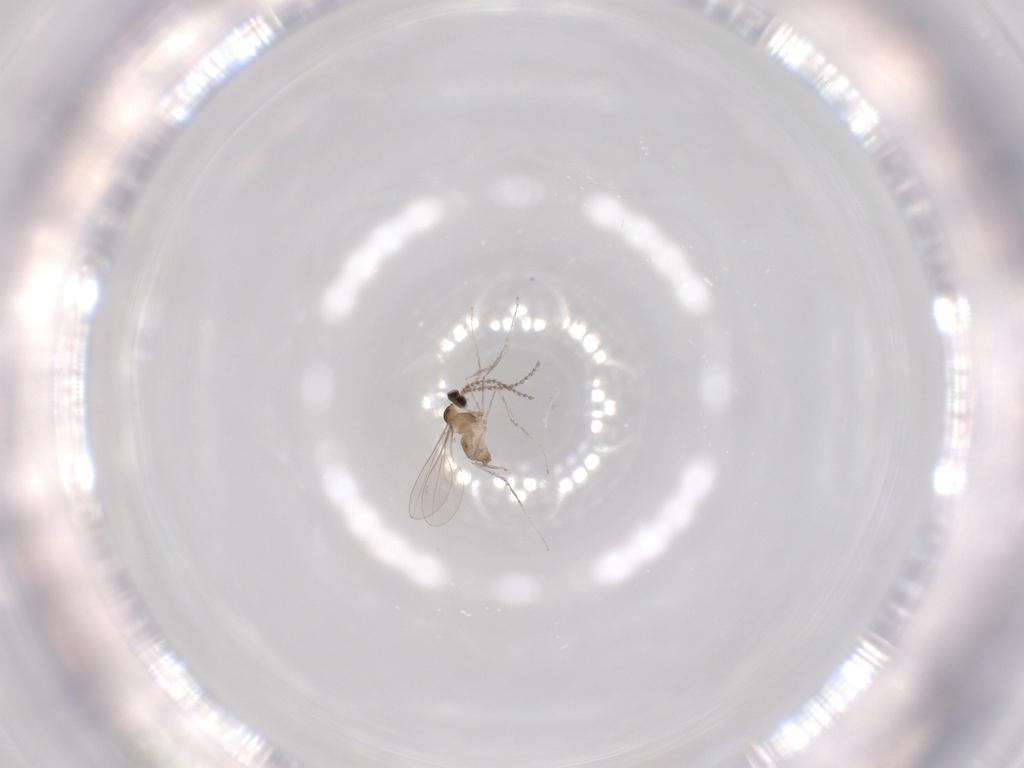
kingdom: Animalia
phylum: Arthropoda
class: Insecta
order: Diptera
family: Cecidomyiidae
